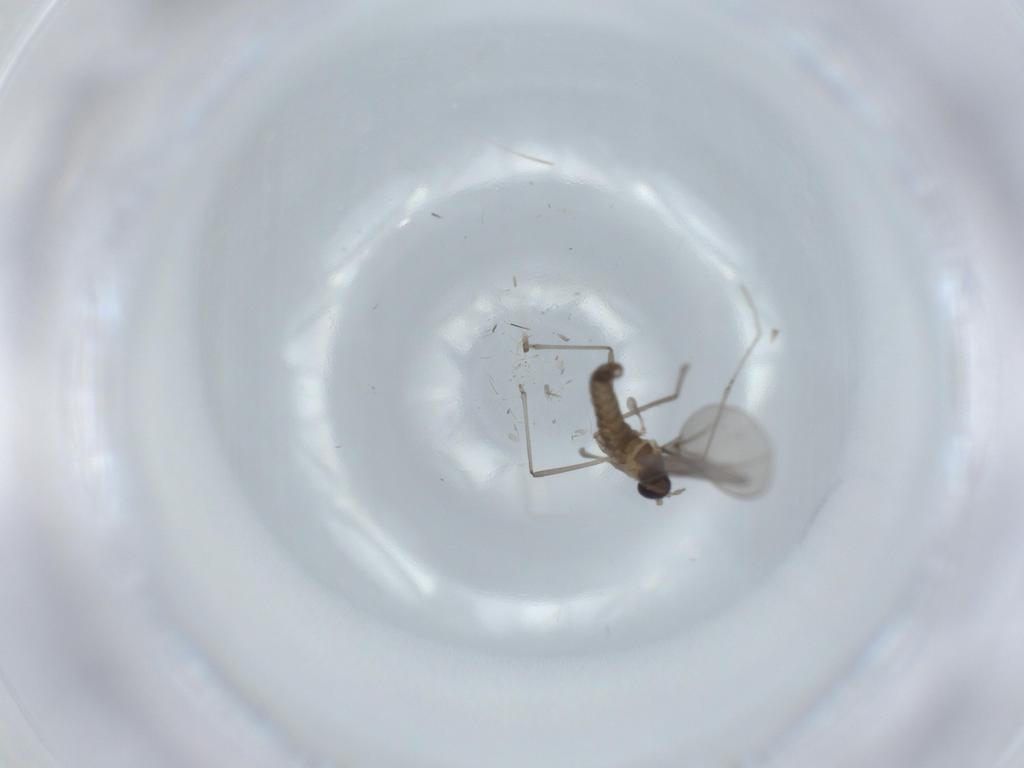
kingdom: Animalia
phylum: Arthropoda
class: Insecta
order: Diptera
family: Cecidomyiidae
